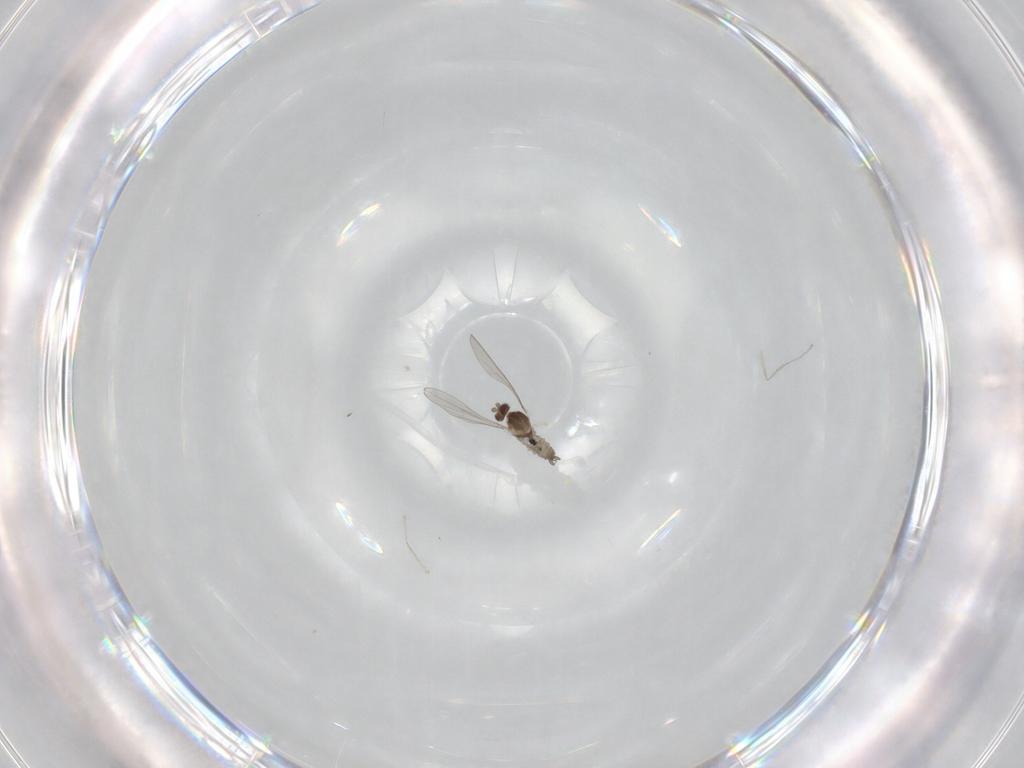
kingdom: Animalia
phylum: Arthropoda
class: Insecta
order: Diptera
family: Cecidomyiidae
